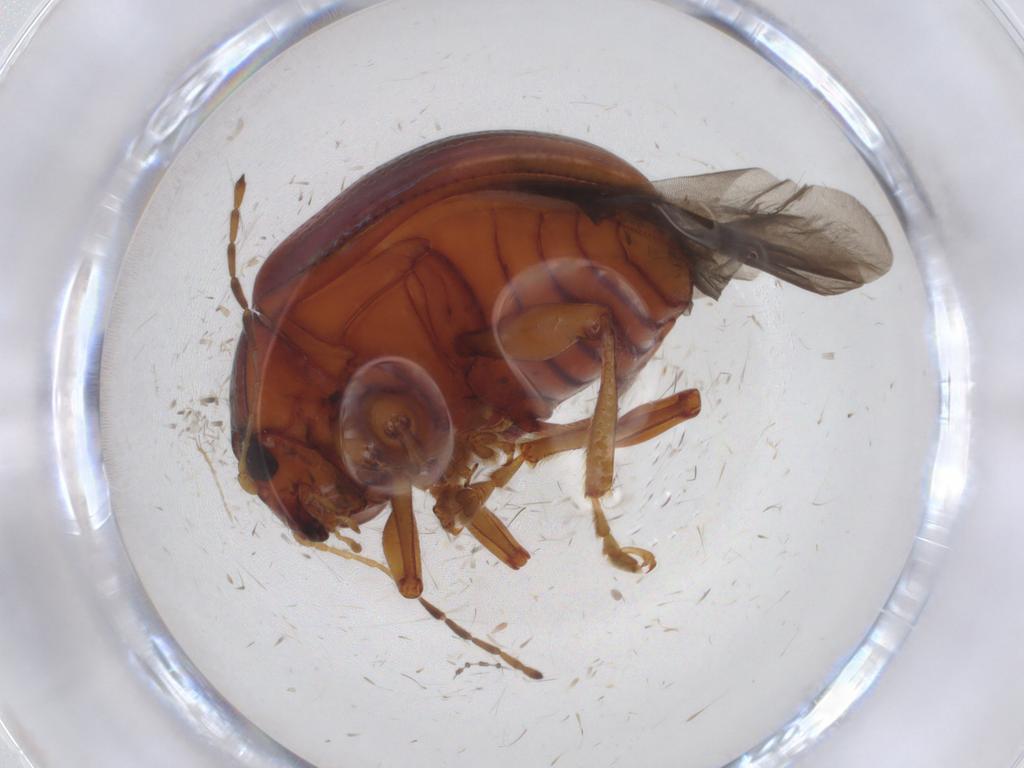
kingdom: Animalia
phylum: Arthropoda
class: Insecta
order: Coleoptera
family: Chrysomelidae
